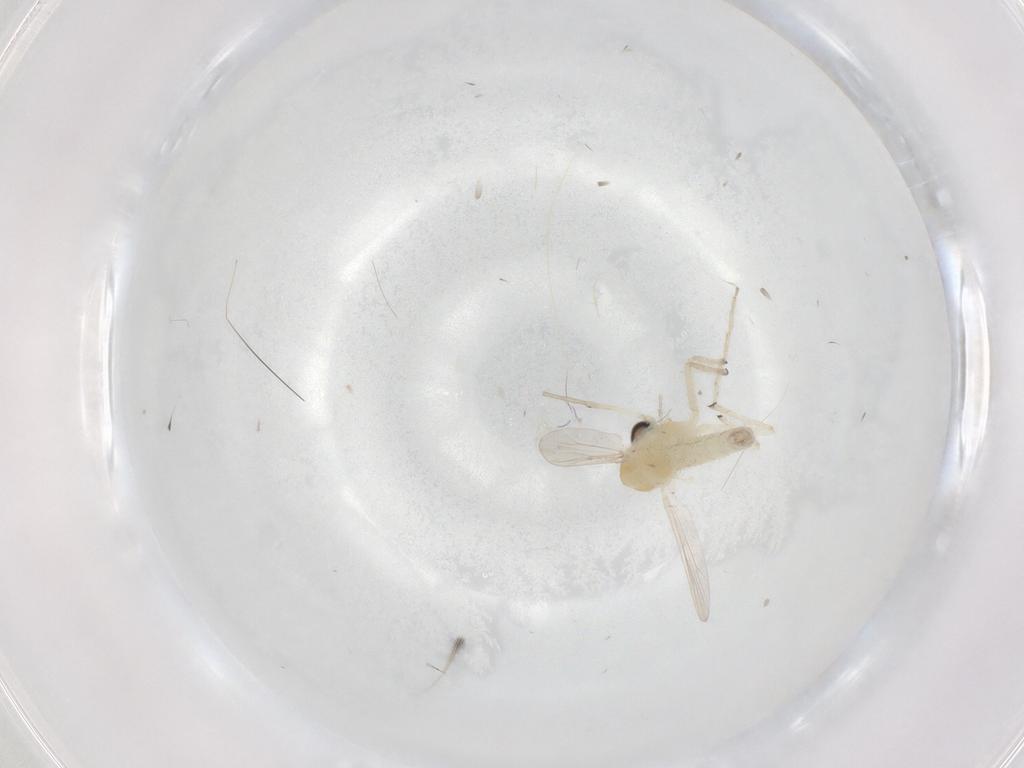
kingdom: Animalia
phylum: Arthropoda
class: Insecta
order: Diptera
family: Chironomidae
